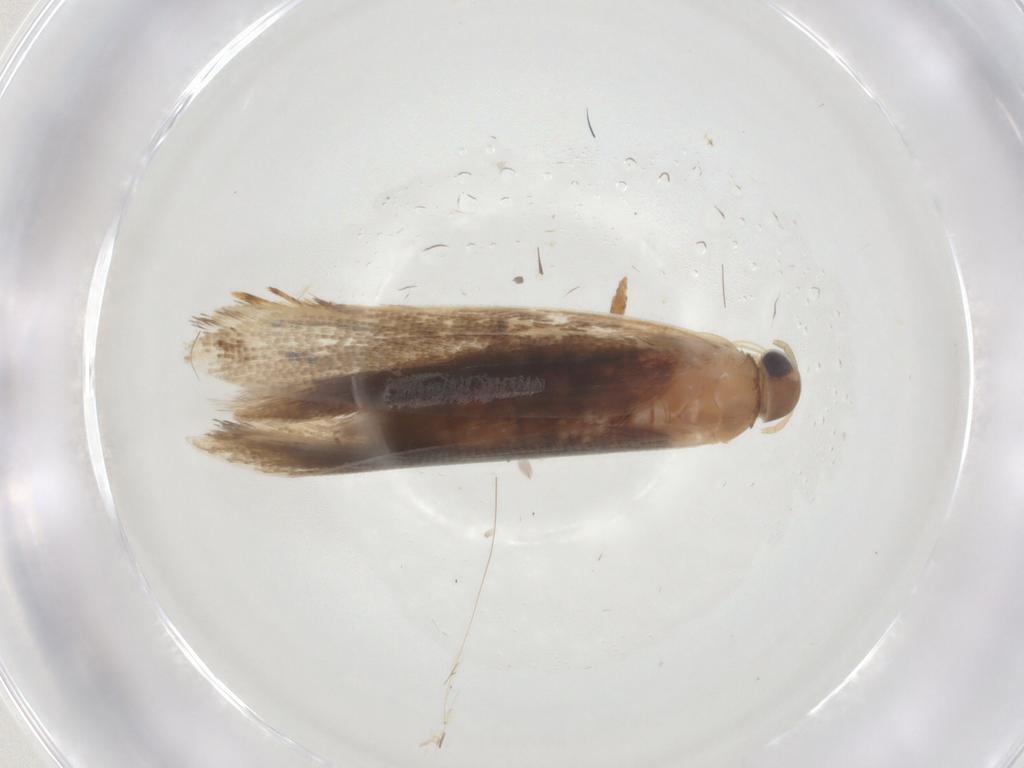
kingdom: Animalia
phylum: Arthropoda
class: Insecta
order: Lepidoptera
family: Gelechiidae
